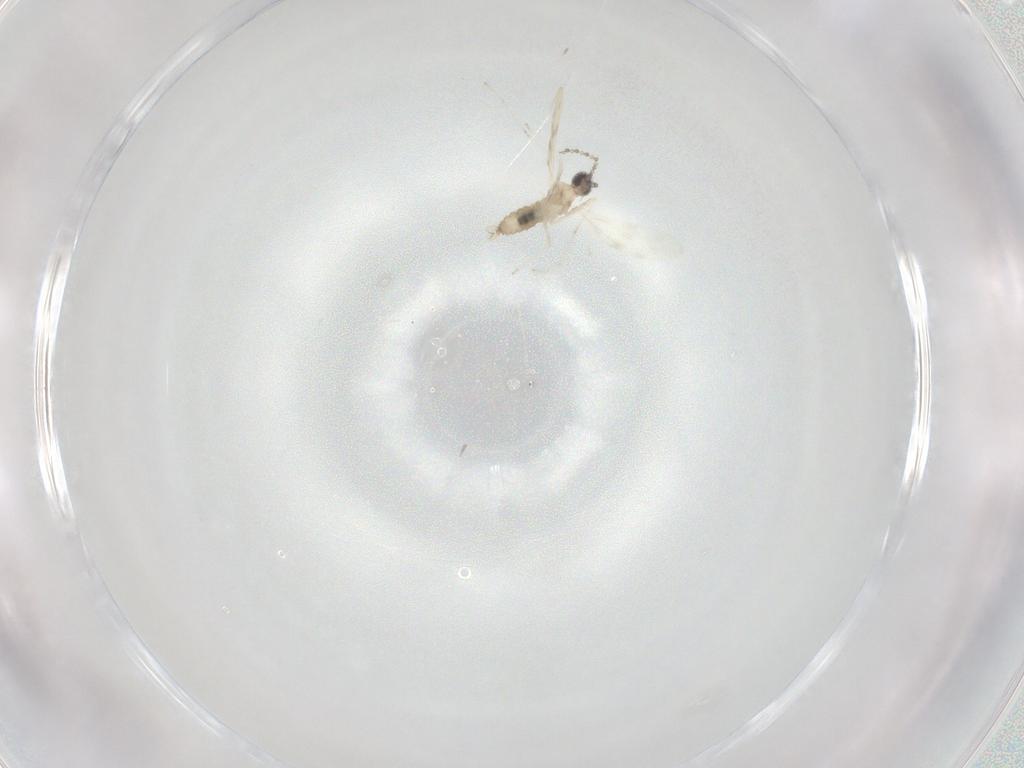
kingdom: Animalia
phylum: Arthropoda
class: Insecta
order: Diptera
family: Cecidomyiidae
